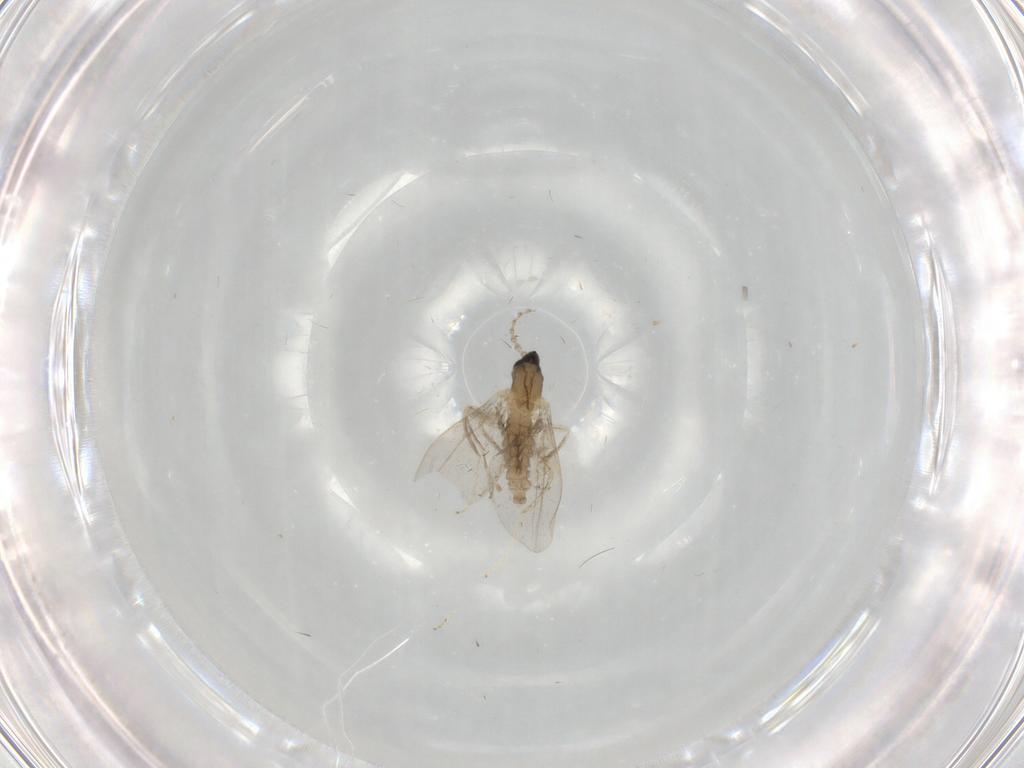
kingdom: Animalia
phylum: Arthropoda
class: Insecta
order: Diptera
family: Cecidomyiidae
